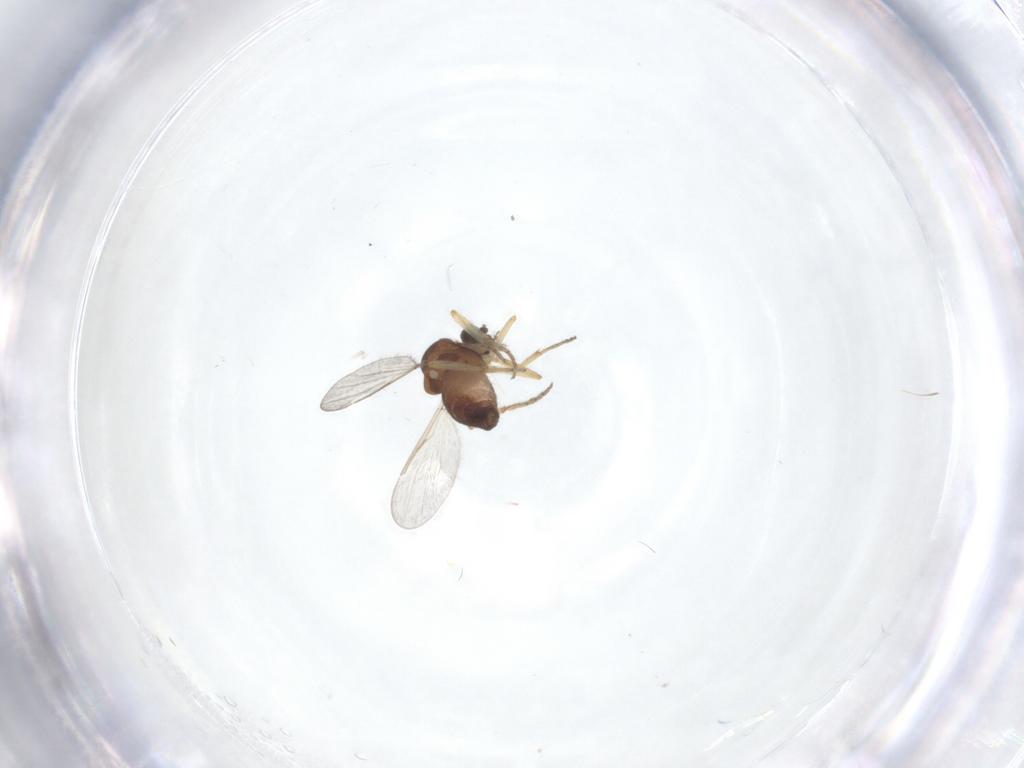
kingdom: Animalia
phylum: Arthropoda
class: Insecta
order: Diptera
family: Ceratopogonidae
